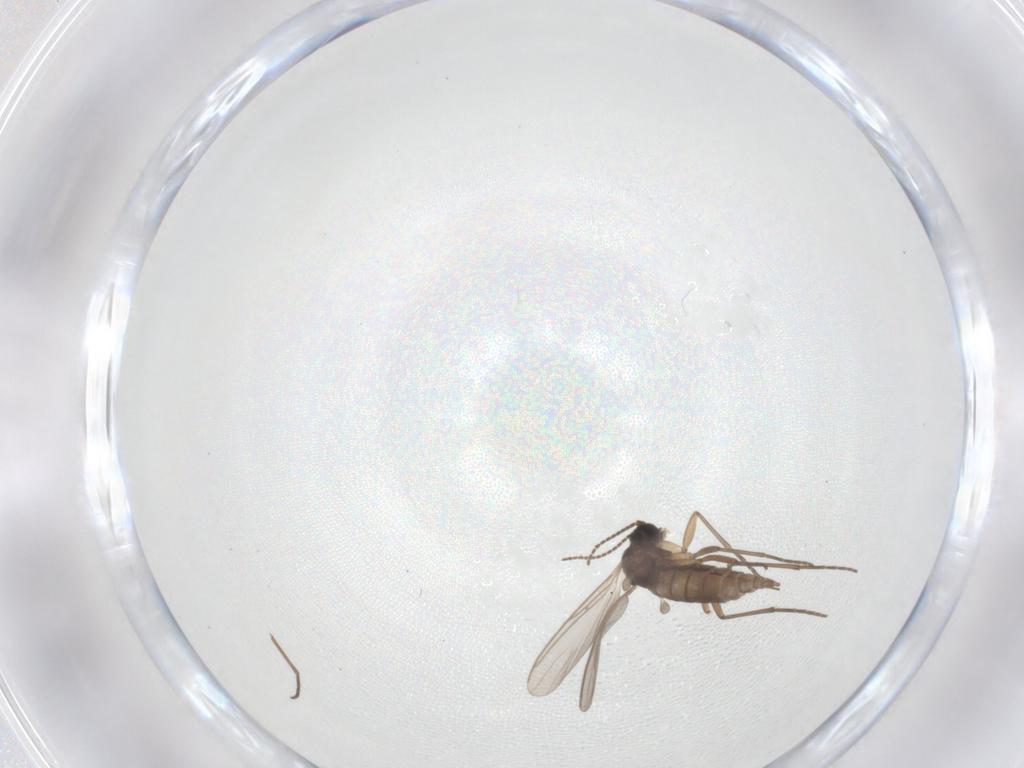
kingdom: Animalia
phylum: Arthropoda
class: Insecta
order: Diptera
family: Sciaridae
